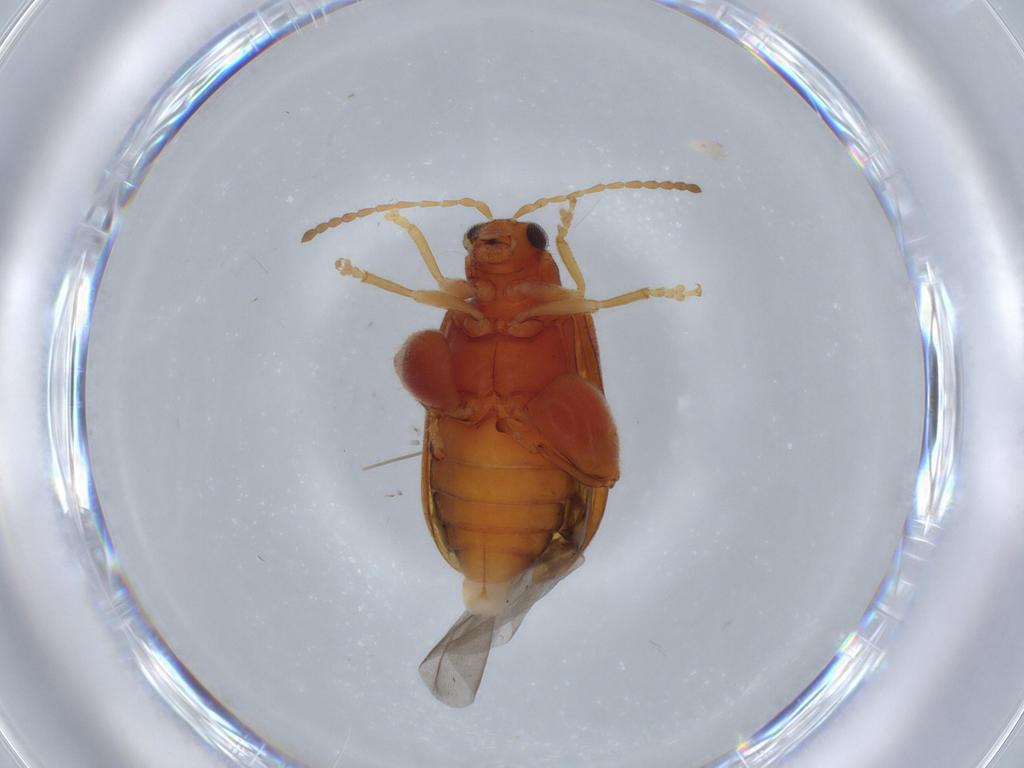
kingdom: Animalia
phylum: Arthropoda
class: Insecta
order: Coleoptera
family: Chrysomelidae
